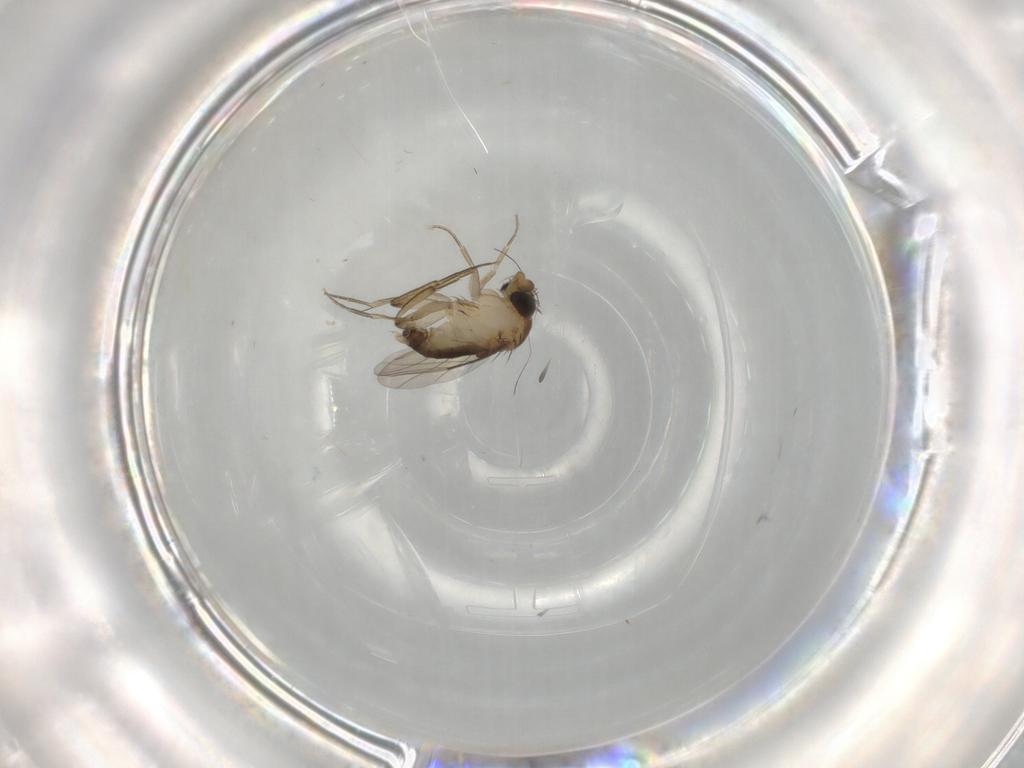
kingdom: Animalia
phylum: Arthropoda
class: Insecta
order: Diptera
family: Phoridae
